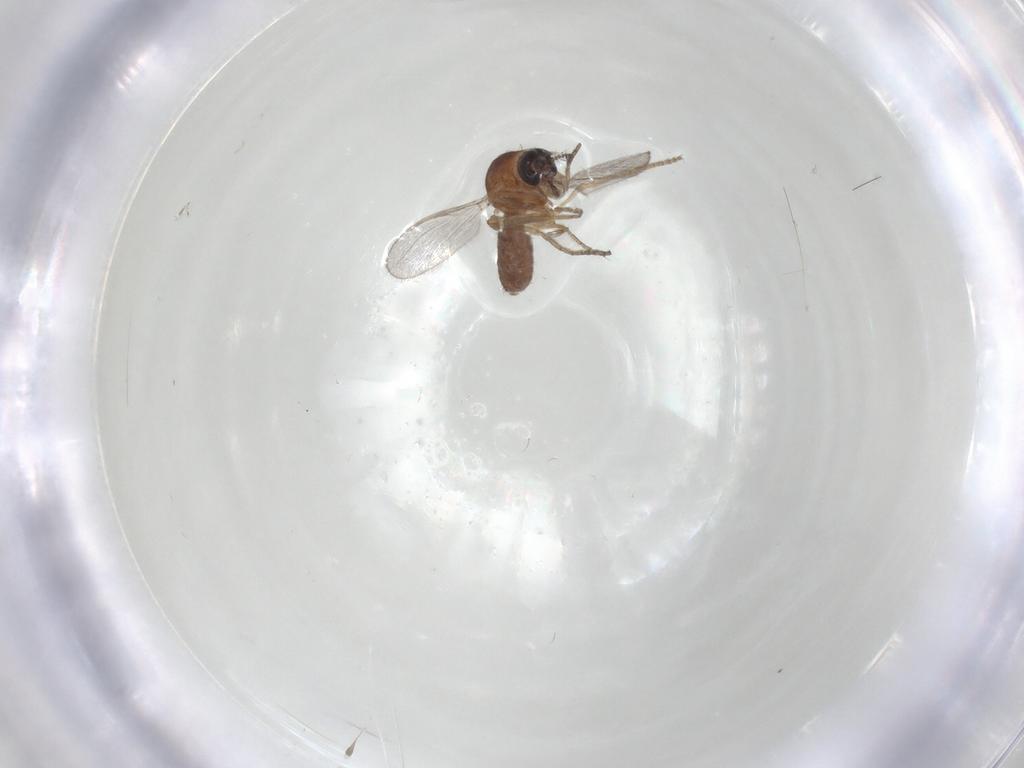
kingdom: Animalia
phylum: Arthropoda
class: Insecta
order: Diptera
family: Ceratopogonidae
